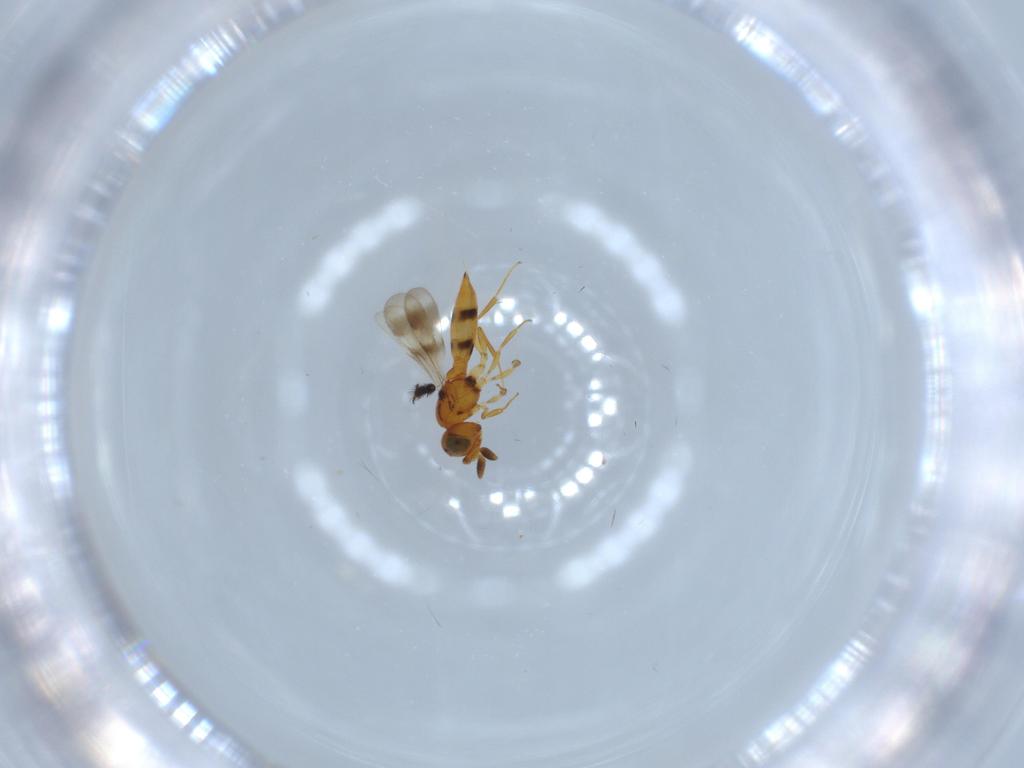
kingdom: Animalia
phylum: Arthropoda
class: Insecta
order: Hymenoptera
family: Scelionidae
